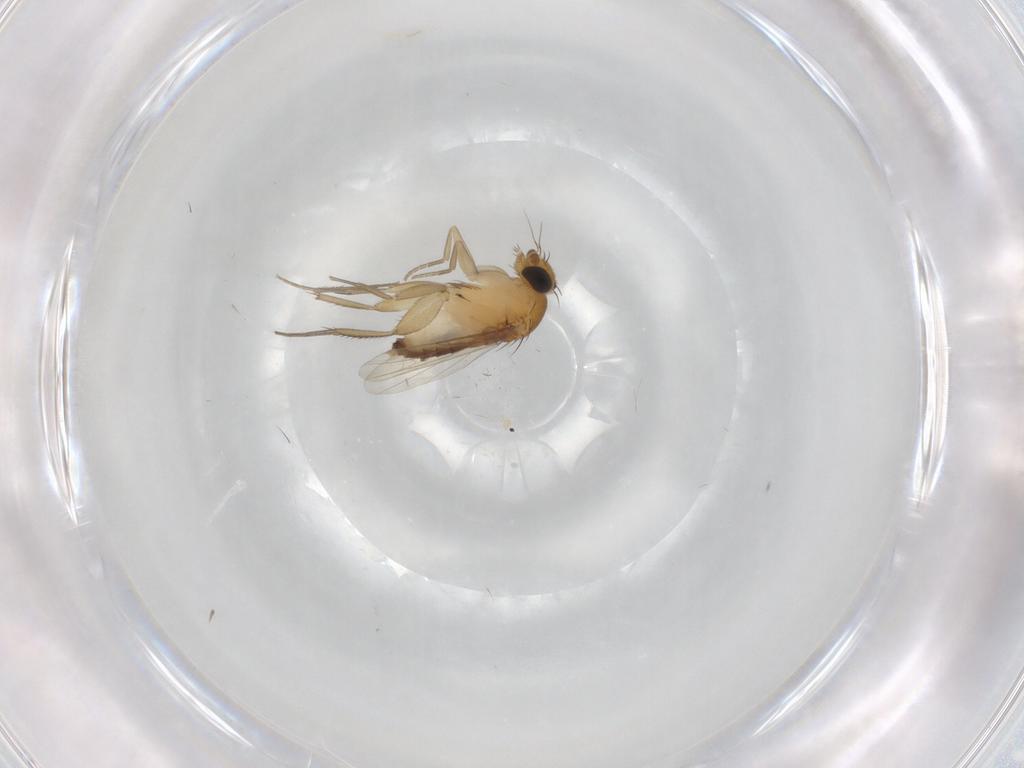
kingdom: Animalia
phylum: Arthropoda
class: Insecta
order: Diptera
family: Phoridae
